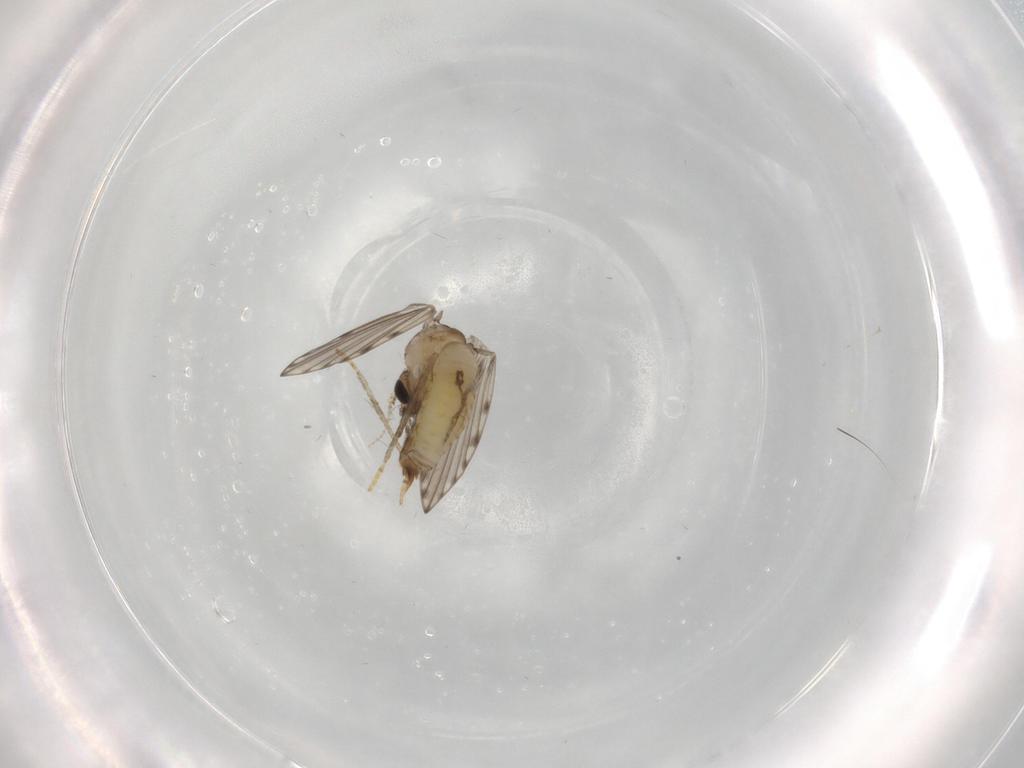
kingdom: Animalia
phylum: Arthropoda
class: Insecta
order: Diptera
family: Psychodidae
